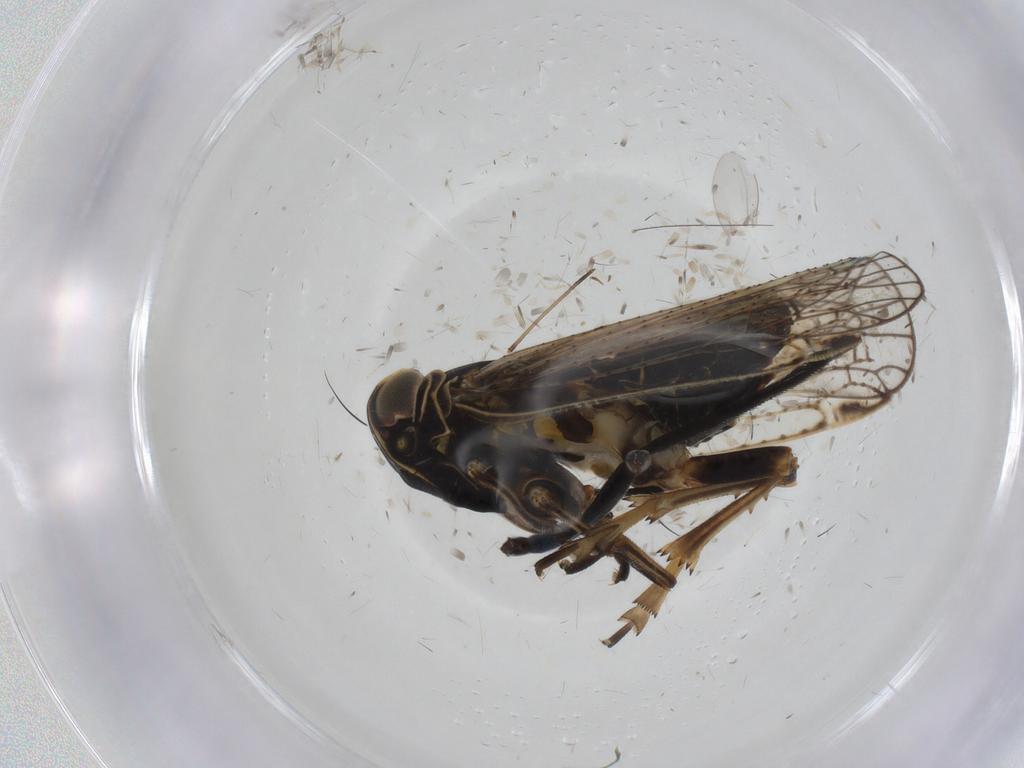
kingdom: Animalia
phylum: Arthropoda
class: Insecta
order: Hemiptera
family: Cixiidae
